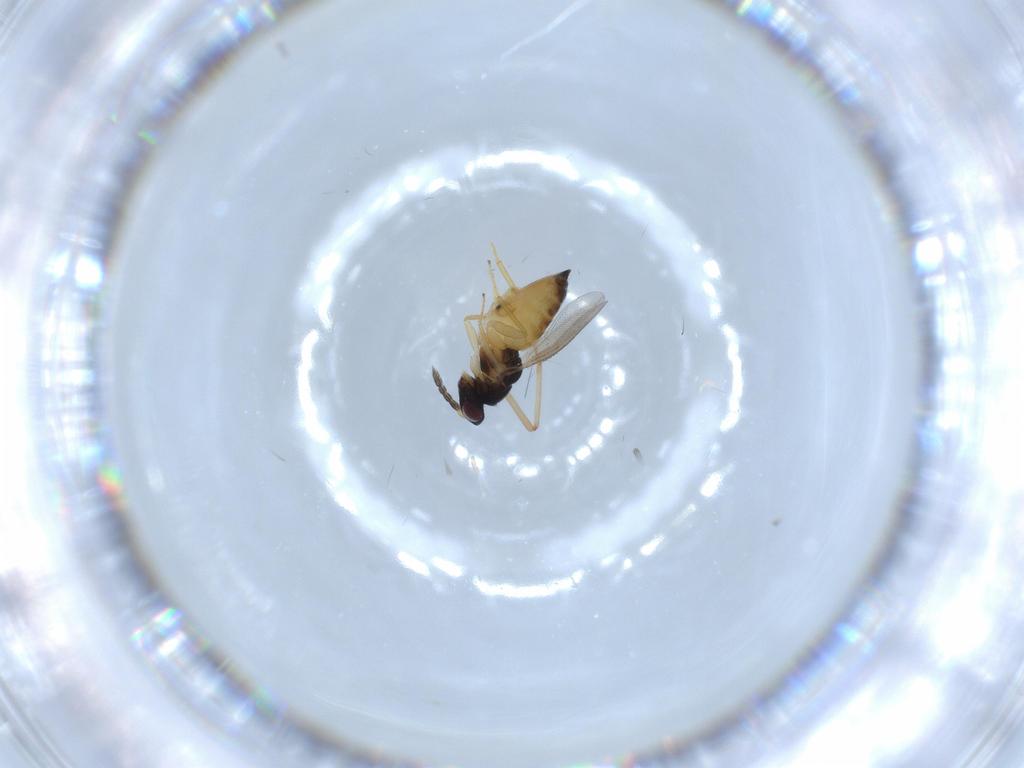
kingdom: Animalia
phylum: Arthropoda
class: Insecta
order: Hymenoptera
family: Eulophidae
